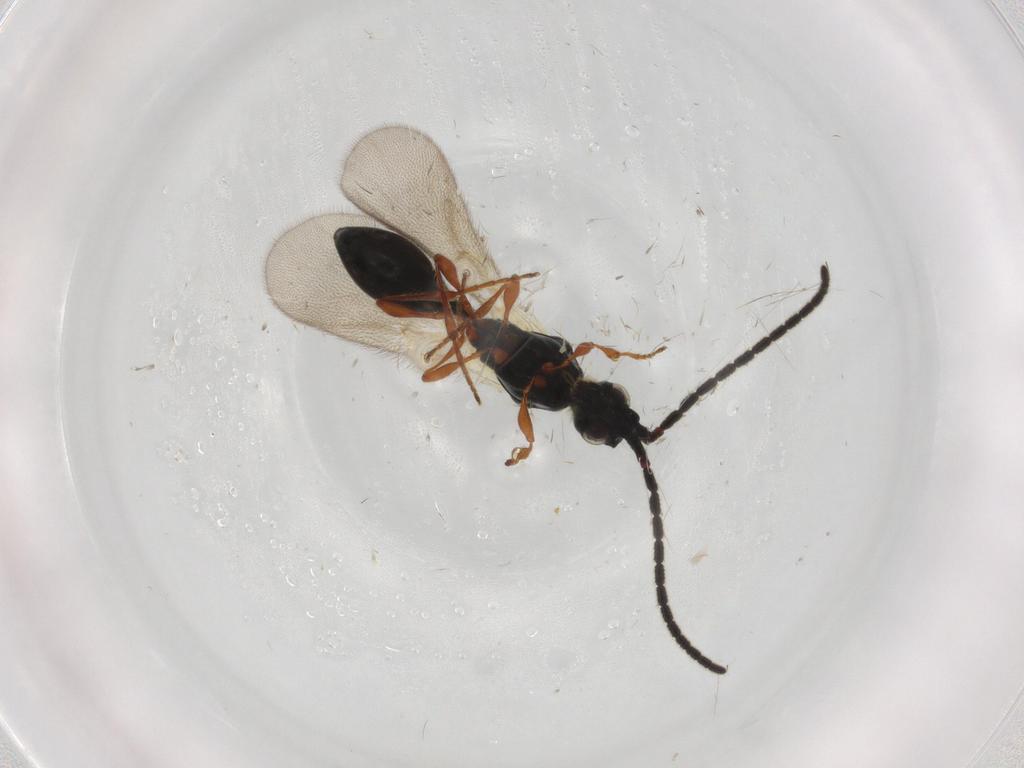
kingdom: Animalia
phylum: Arthropoda
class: Insecta
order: Hymenoptera
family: Diapriidae
